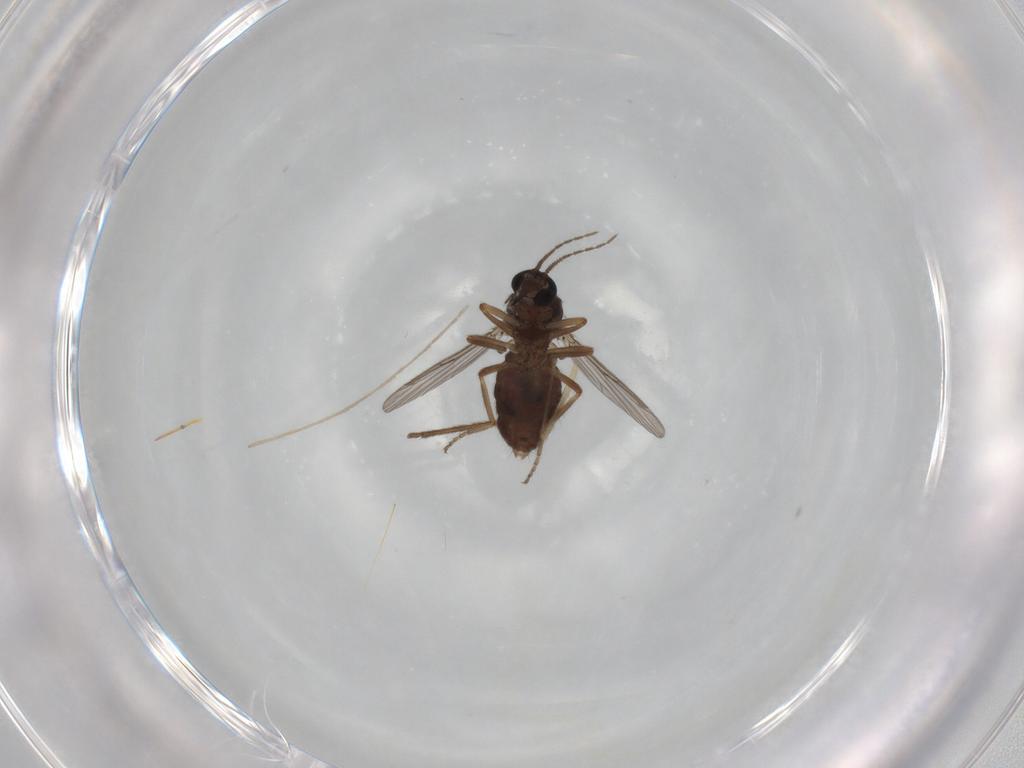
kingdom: Animalia
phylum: Arthropoda
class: Insecta
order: Diptera
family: Ceratopogonidae
